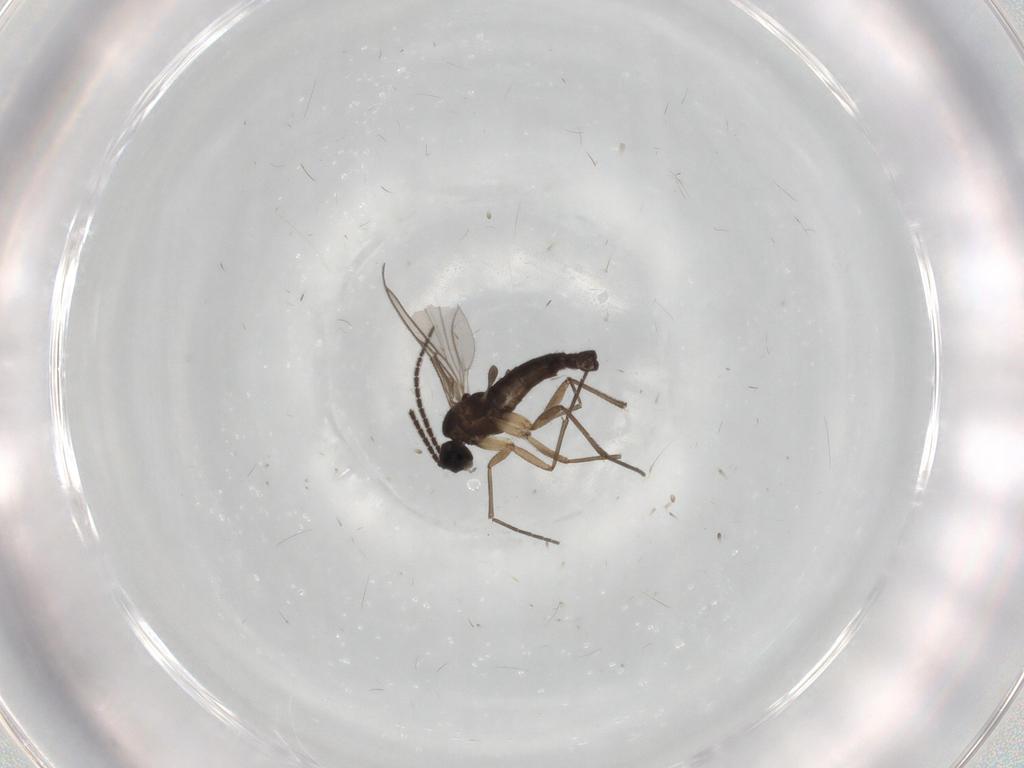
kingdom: Animalia
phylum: Arthropoda
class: Insecta
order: Diptera
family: Sciaridae
